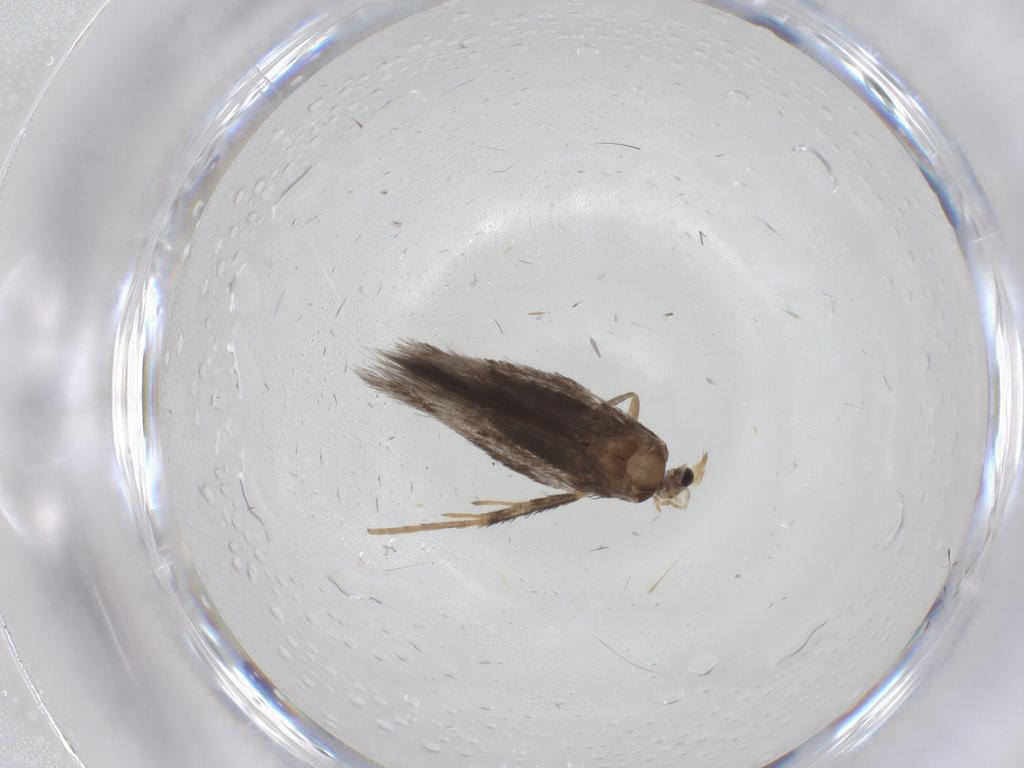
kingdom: Animalia
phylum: Arthropoda
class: Insecta
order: Lepidoptera
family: Nepticulidae
